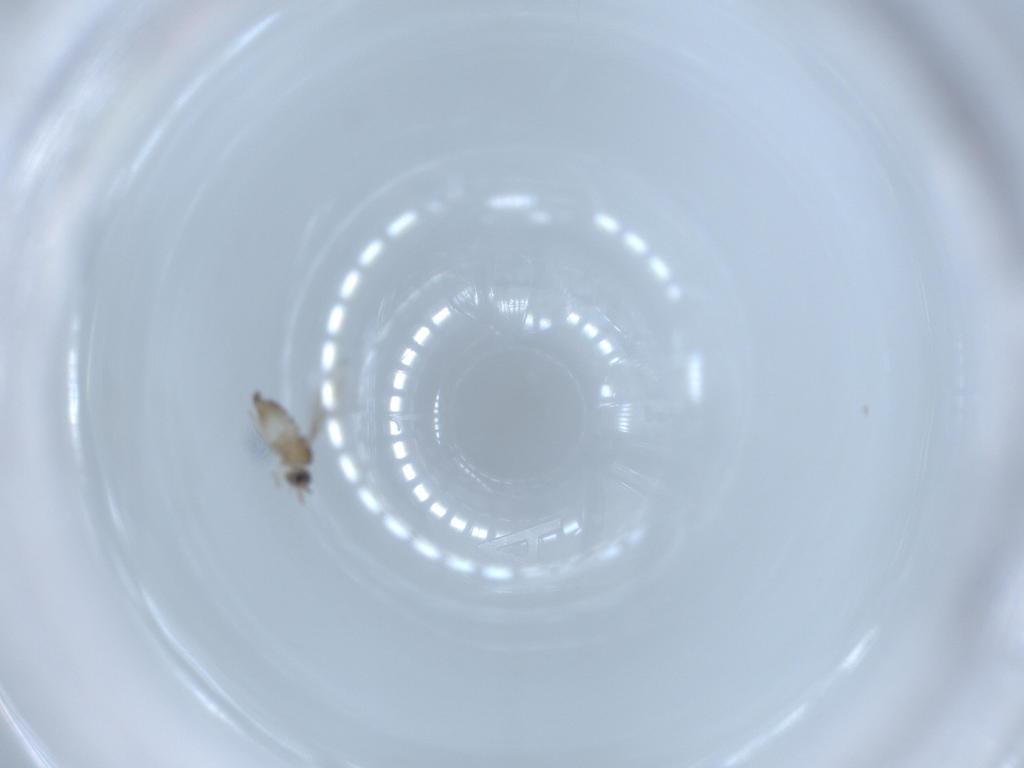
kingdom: Animalia
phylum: Arthropoda
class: Insecta
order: Diptera
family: Cecidomyiidae
